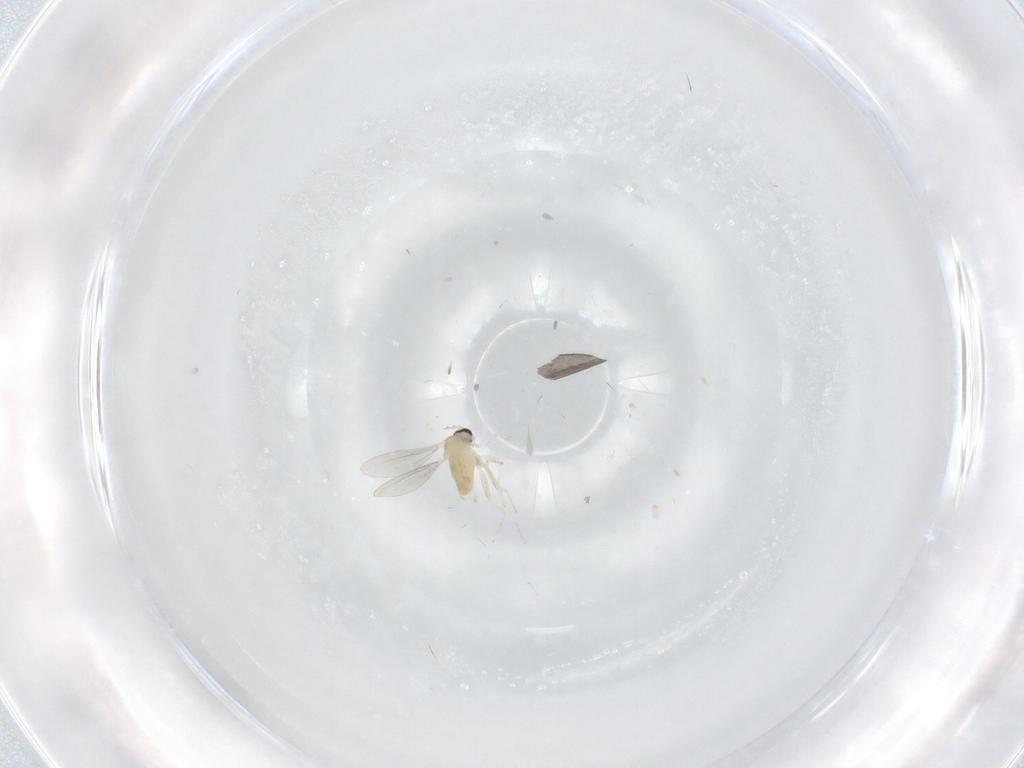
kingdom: Animalia
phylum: Arthropoda
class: Insecta
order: Diptera
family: Cecidomyiidae
